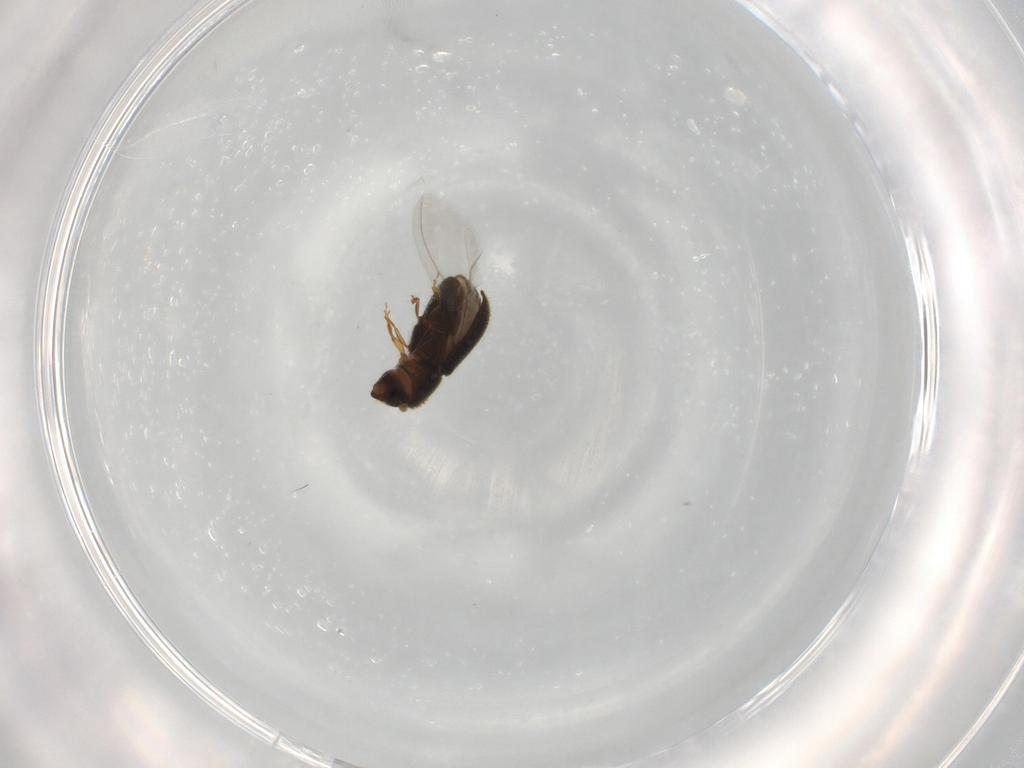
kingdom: Animalia
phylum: Arthropoda
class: Insecta
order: Coleoptera
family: Curculionidae
